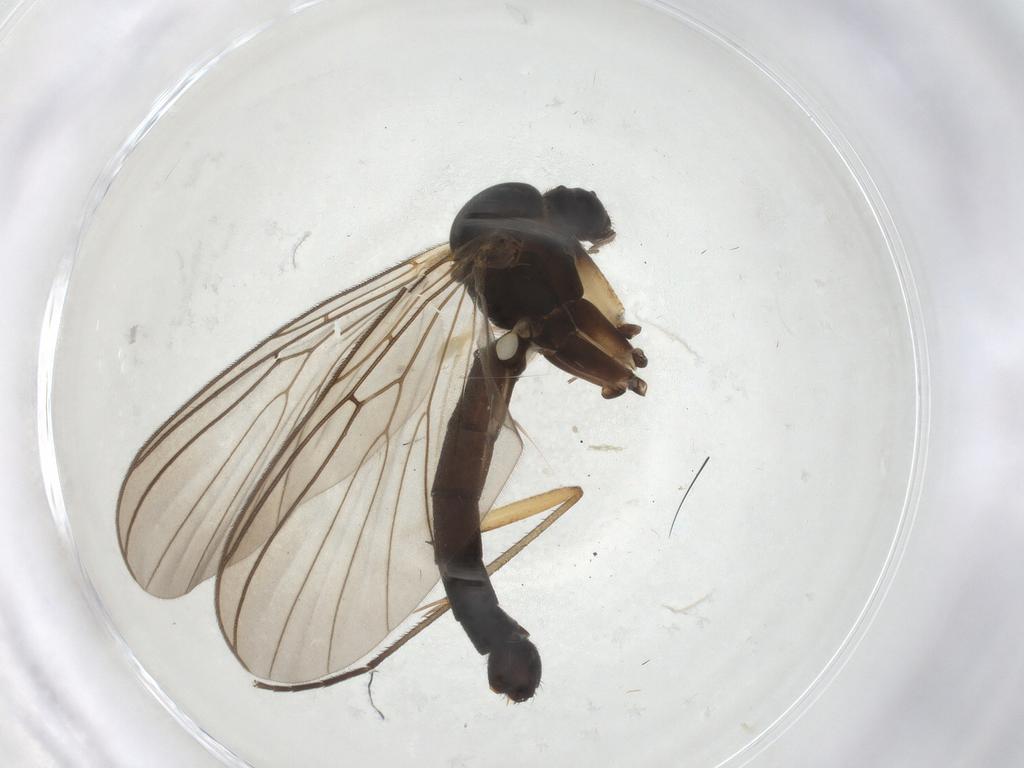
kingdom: Animalia
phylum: Arthropoda
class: Insecta
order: Diptera
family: Mycetophilidae
